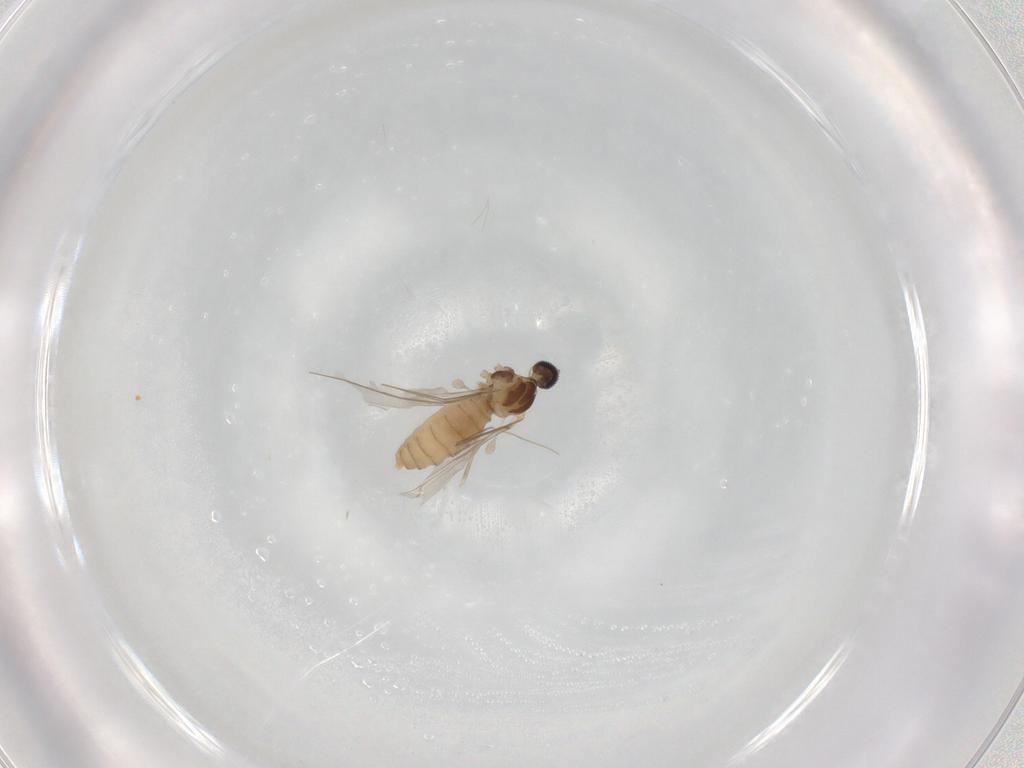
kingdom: Animalia
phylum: Arthropoda
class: Insecta
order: Diptera
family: Cecidomyiidae
